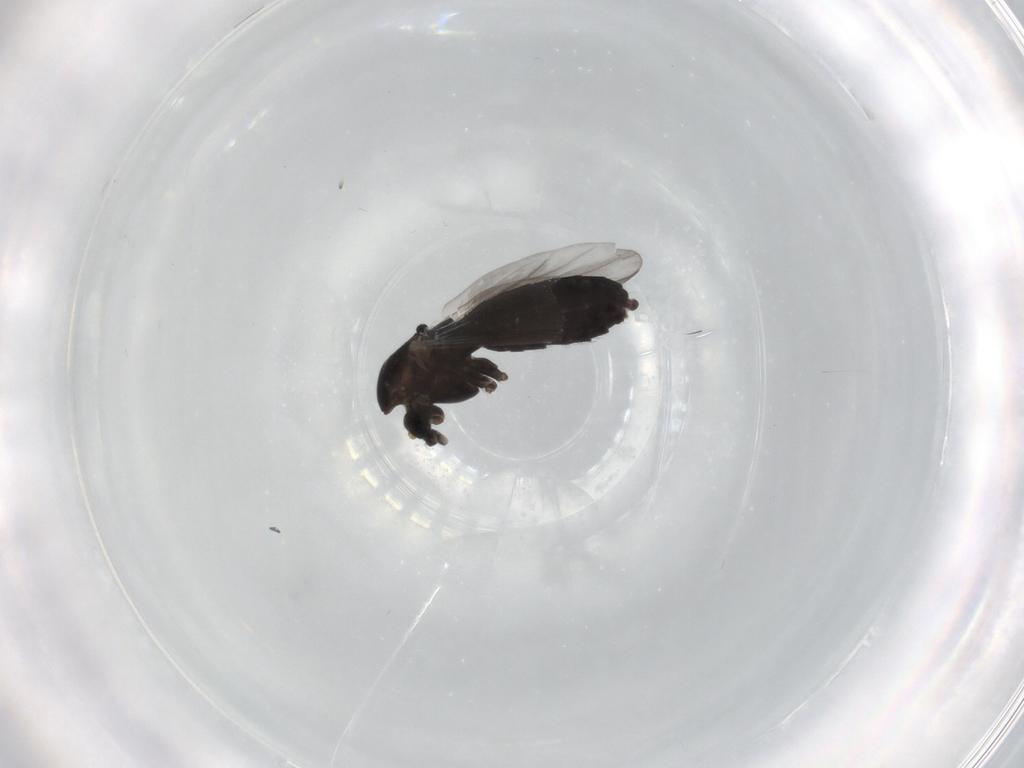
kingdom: Animalia
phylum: Arthropoda
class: Insecta
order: Diptera
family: Chironomidae
